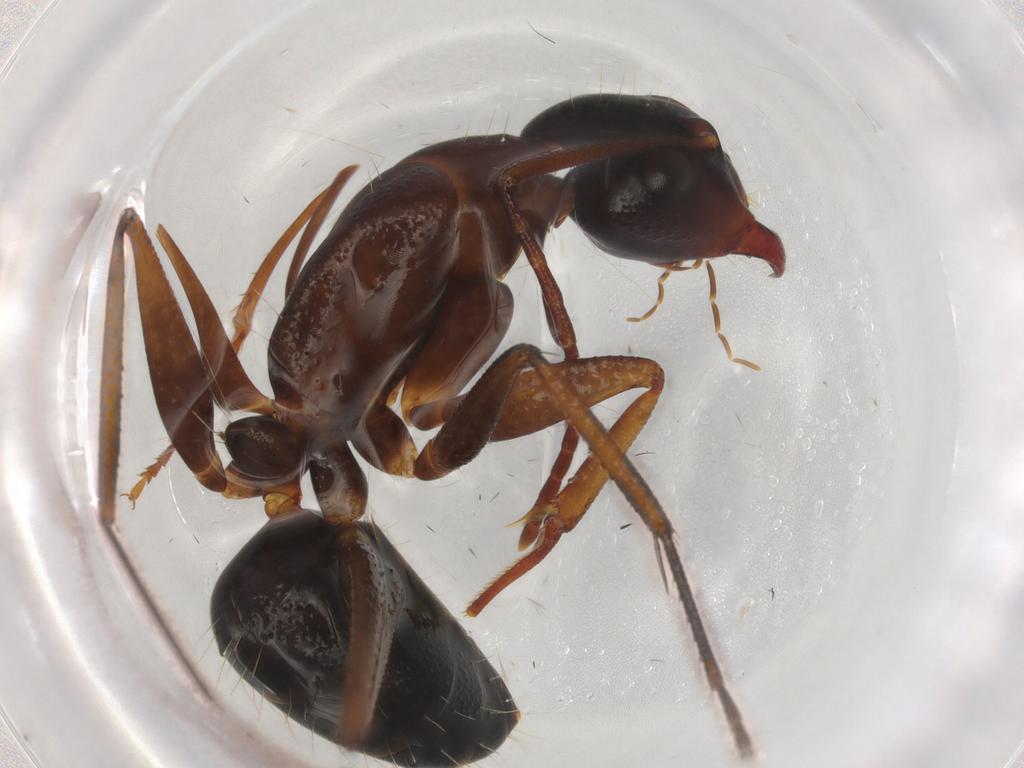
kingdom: Animalia
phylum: Arthropoda
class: Insecta
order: Hymenoptera
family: Formicidae
